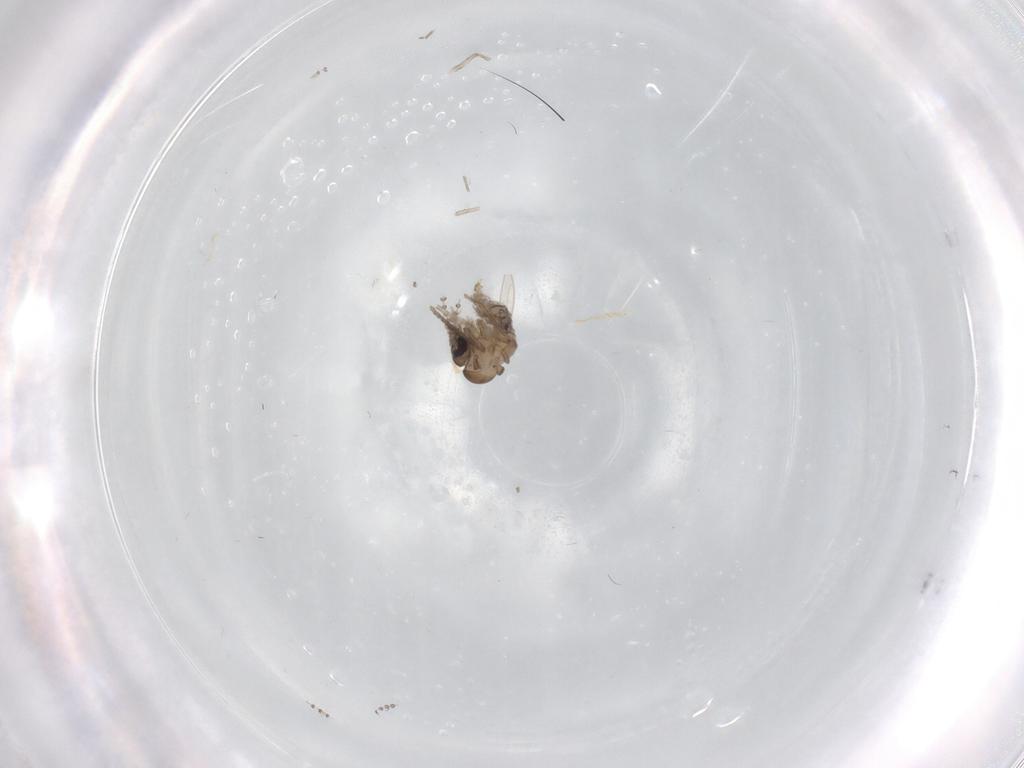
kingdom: Animalia
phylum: Arthropoda
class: Insecta
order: Diptera
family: Psychodidae
